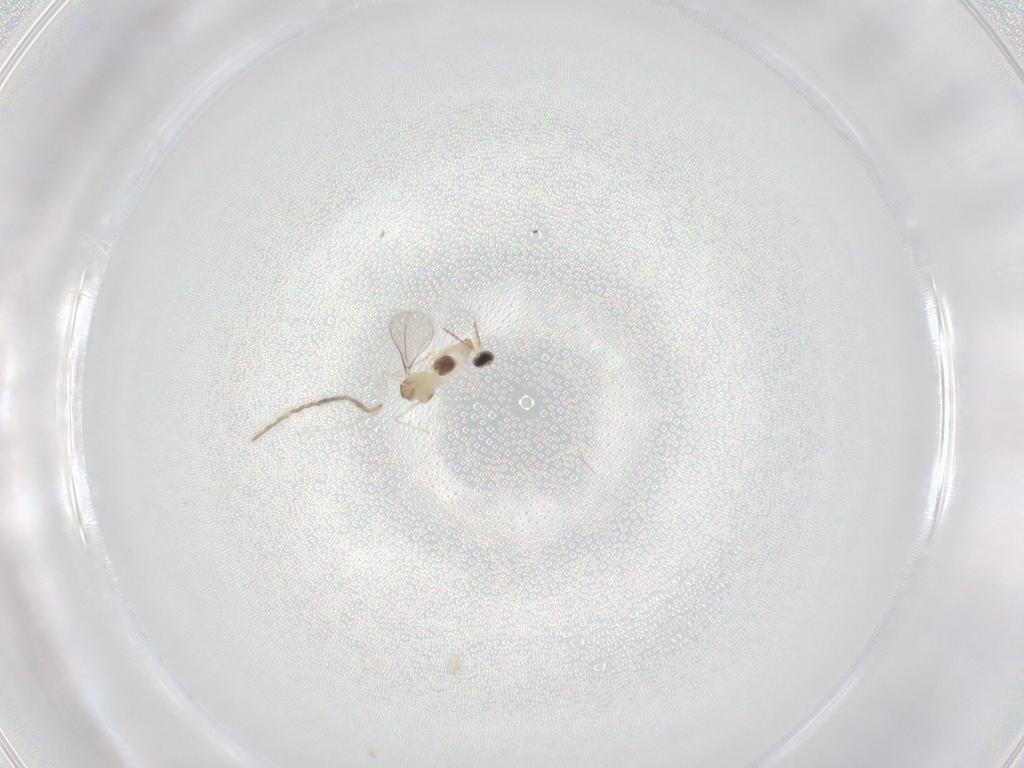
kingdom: Animalia
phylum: Arthropoda
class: Insecta
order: Diptera
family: Cecidomyiidae
